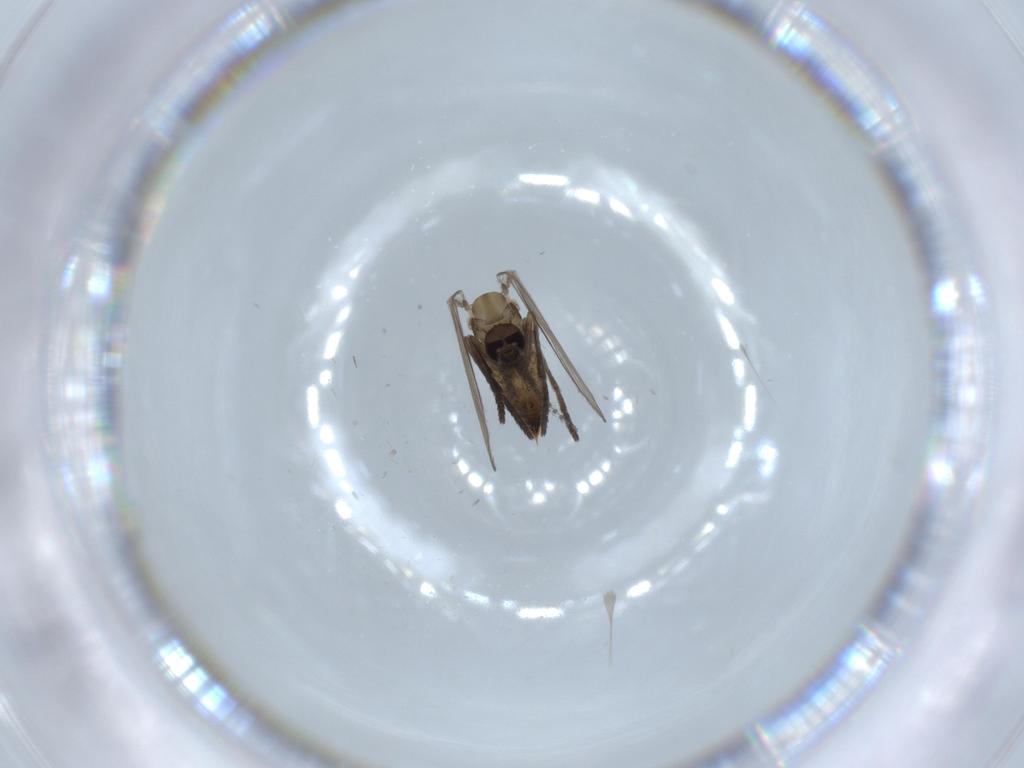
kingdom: Animalia
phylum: Arthropoda
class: Insecta
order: Diptera
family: Psychodidae
